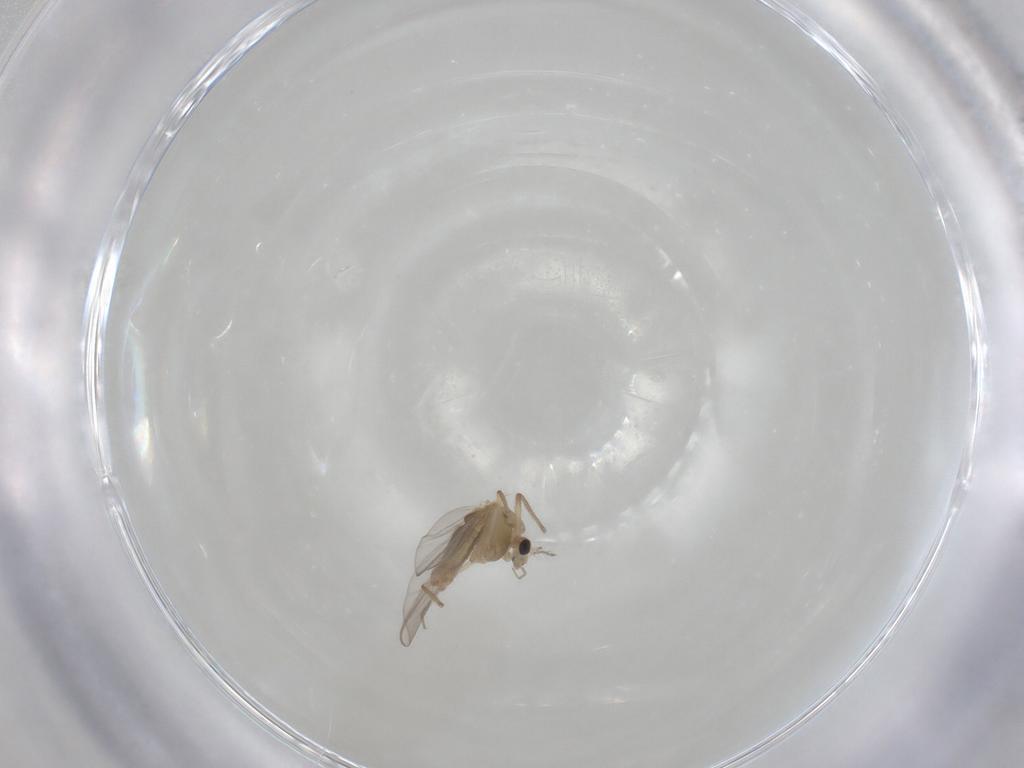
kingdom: Animalia
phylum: Arthropoda
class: Insecta
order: Diptera
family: Chironomidae
